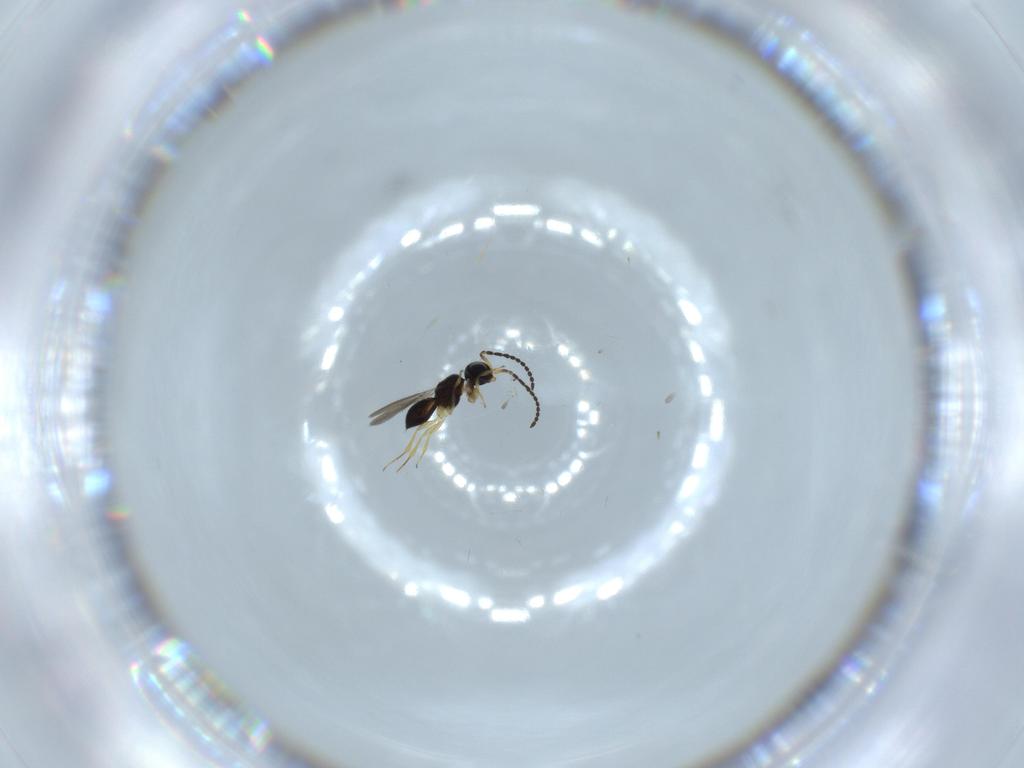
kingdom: Animalia
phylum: Arthropoda
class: Insecta
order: Hymenoptera
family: Scelionidae
